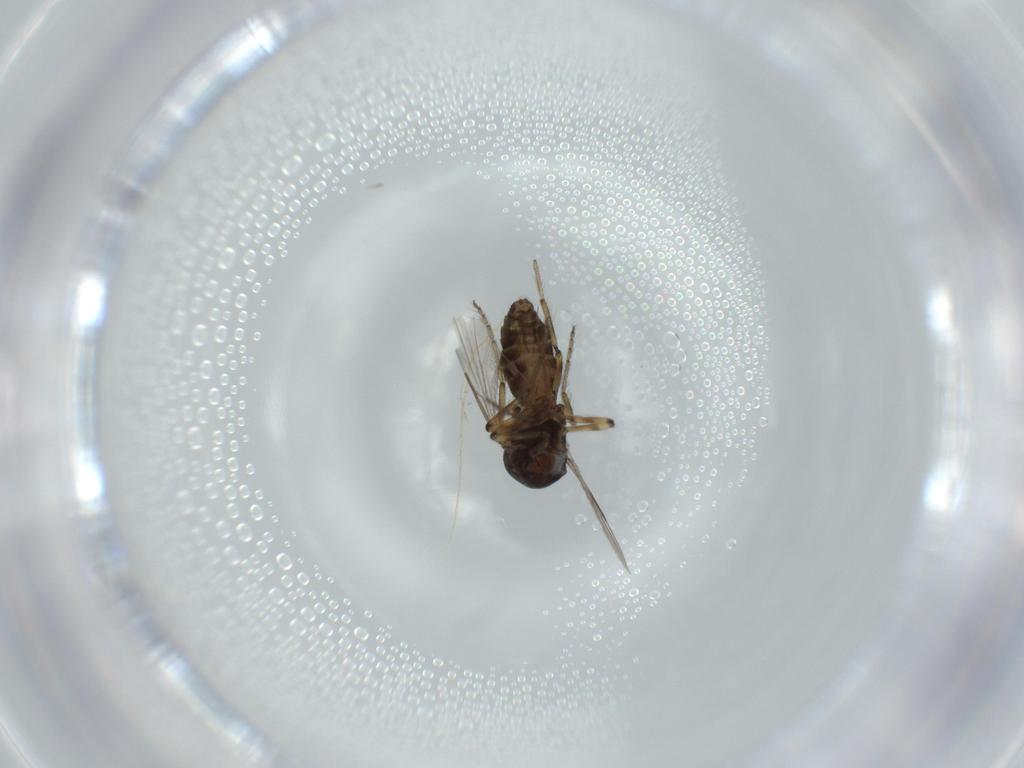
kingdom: Animalia
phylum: Arthropoda
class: Insecta
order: Diptera
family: Ceratopogonidae
